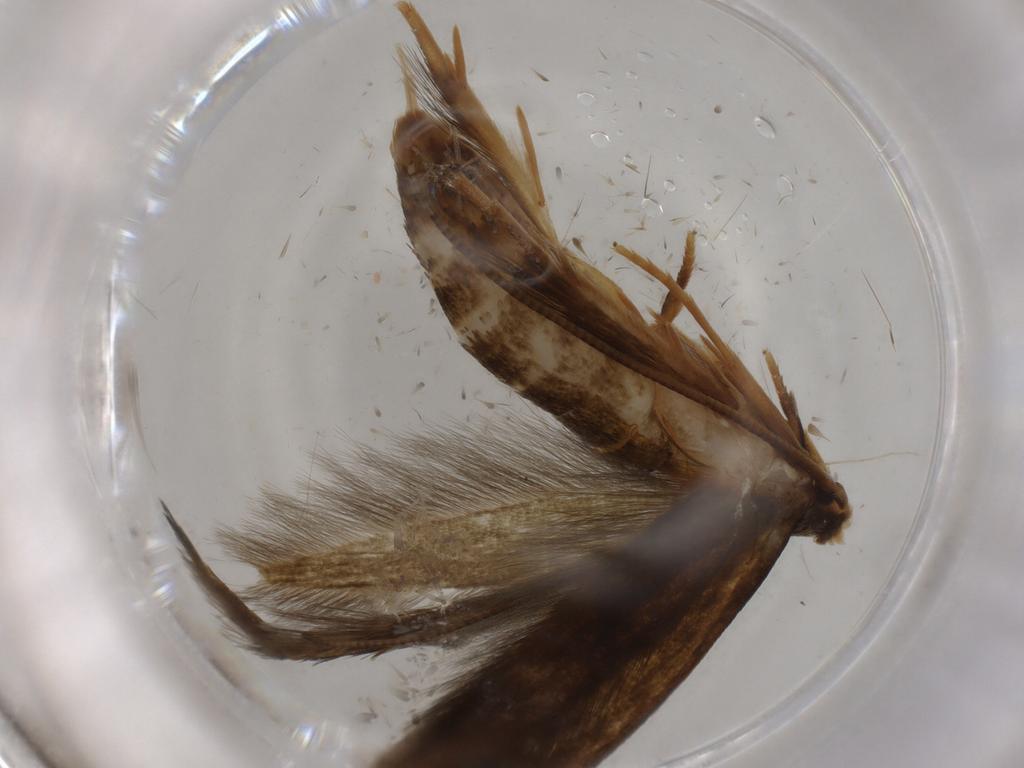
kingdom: Animalia
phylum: Arthropoda
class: Insecta
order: Lepidoptera
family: Tineidae
